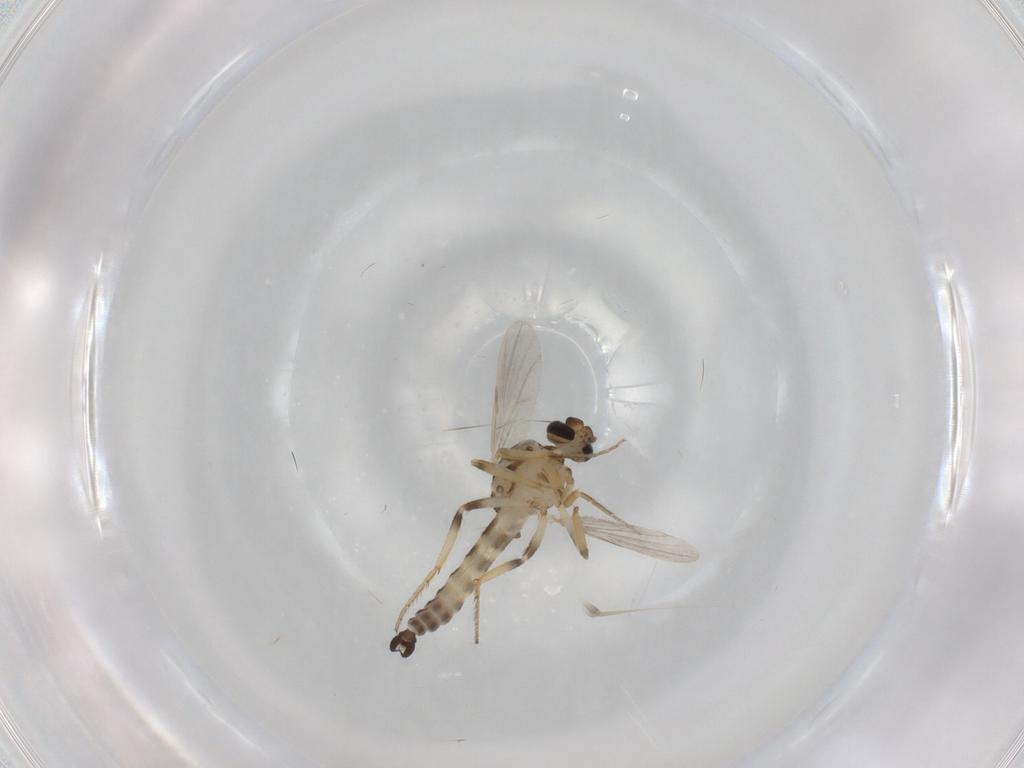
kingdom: Animalia
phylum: Arthropoda
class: Insecta
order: Diptera
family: Ceratopogonidae
